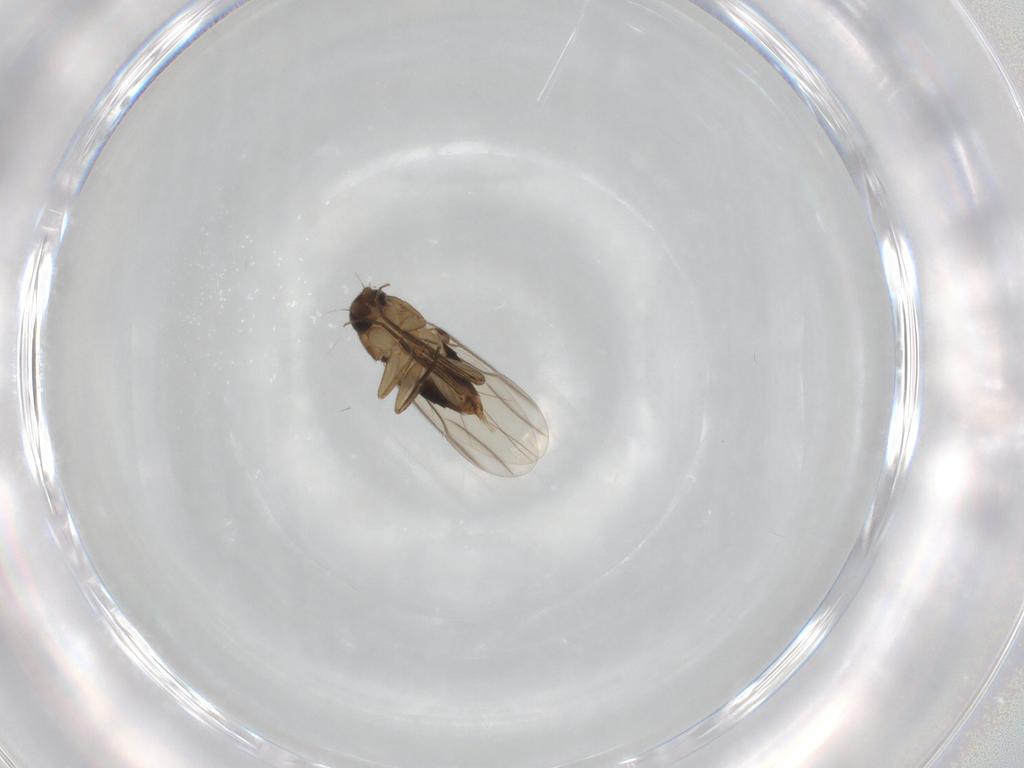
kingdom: Animalia
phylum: Arthropoda
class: Insecta
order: Diptera
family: Phoridae
